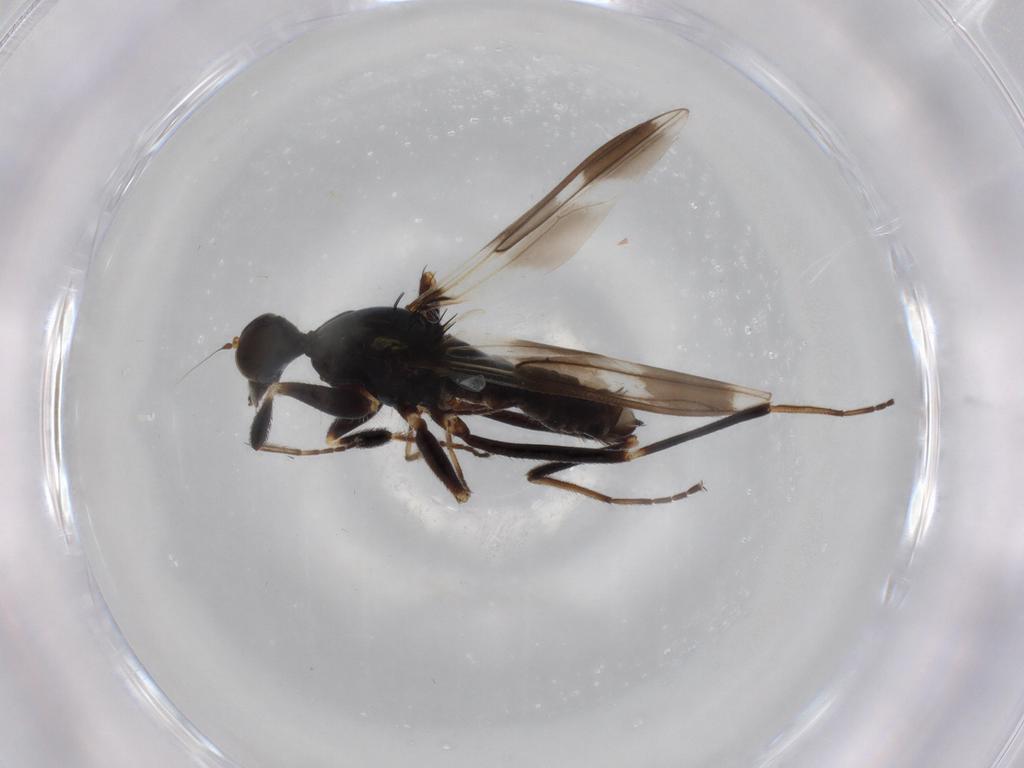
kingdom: Animalia
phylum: Arthropoda
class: Insecta
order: Diptera
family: Hybotidae
